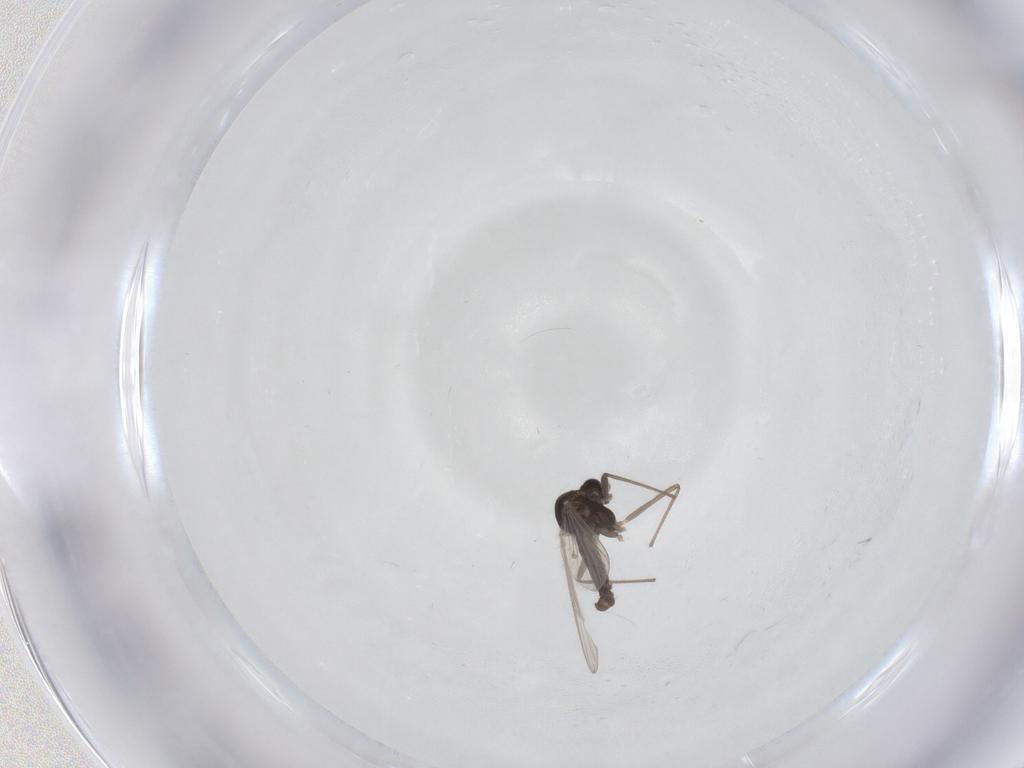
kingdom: Animalia
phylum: Arthropoda
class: Insecta
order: Diptera
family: Chironomidae
